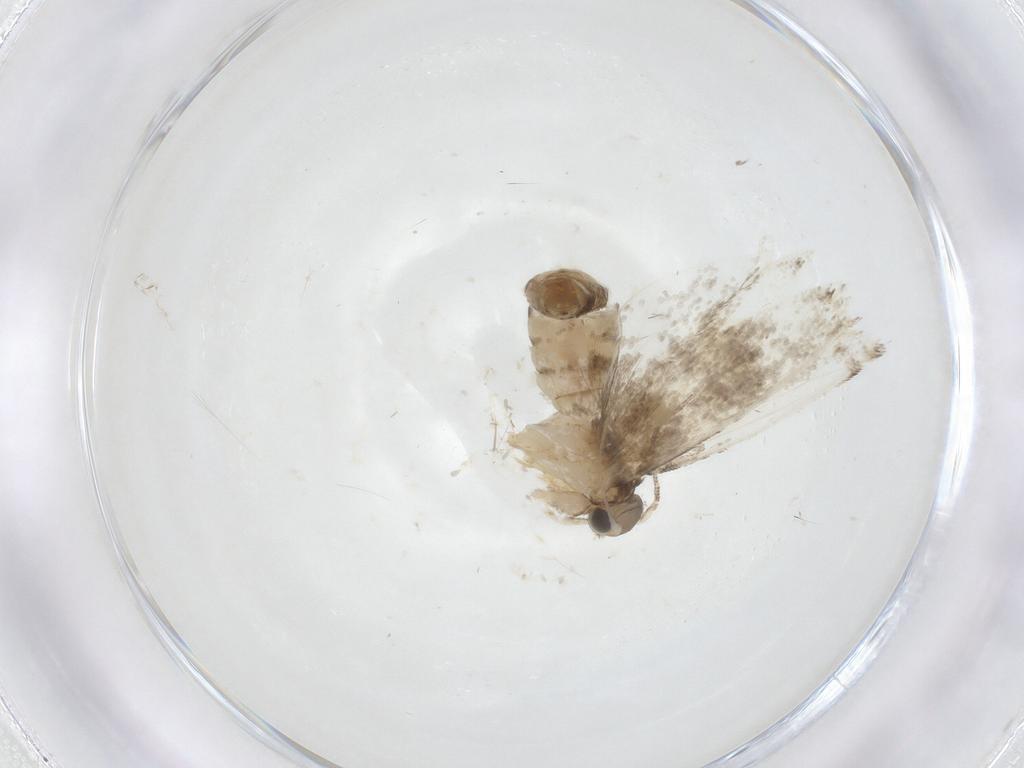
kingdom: Animalia
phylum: Arthropoda
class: Insecta
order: Lepidoptera
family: Tineidae
